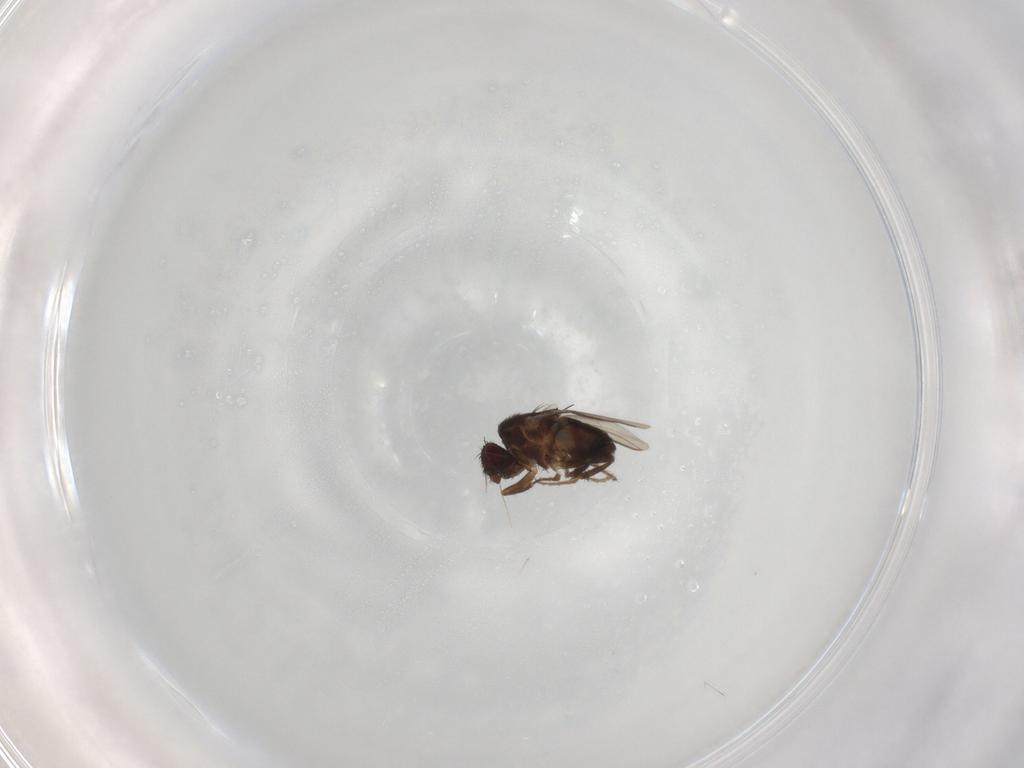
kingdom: Animalia
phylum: Arthropoda
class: Insecta
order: Diptera
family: Sphaeroceridae
